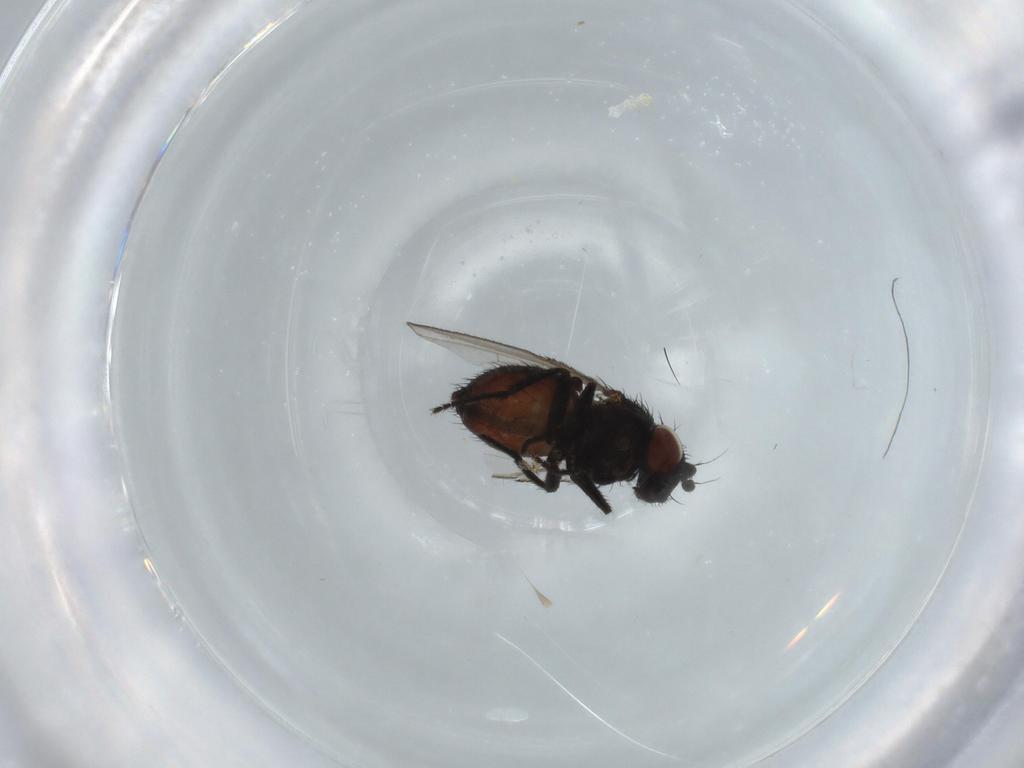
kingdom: Animalia
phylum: Arthropoda
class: Insecta
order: Diptera
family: Milichiidae
